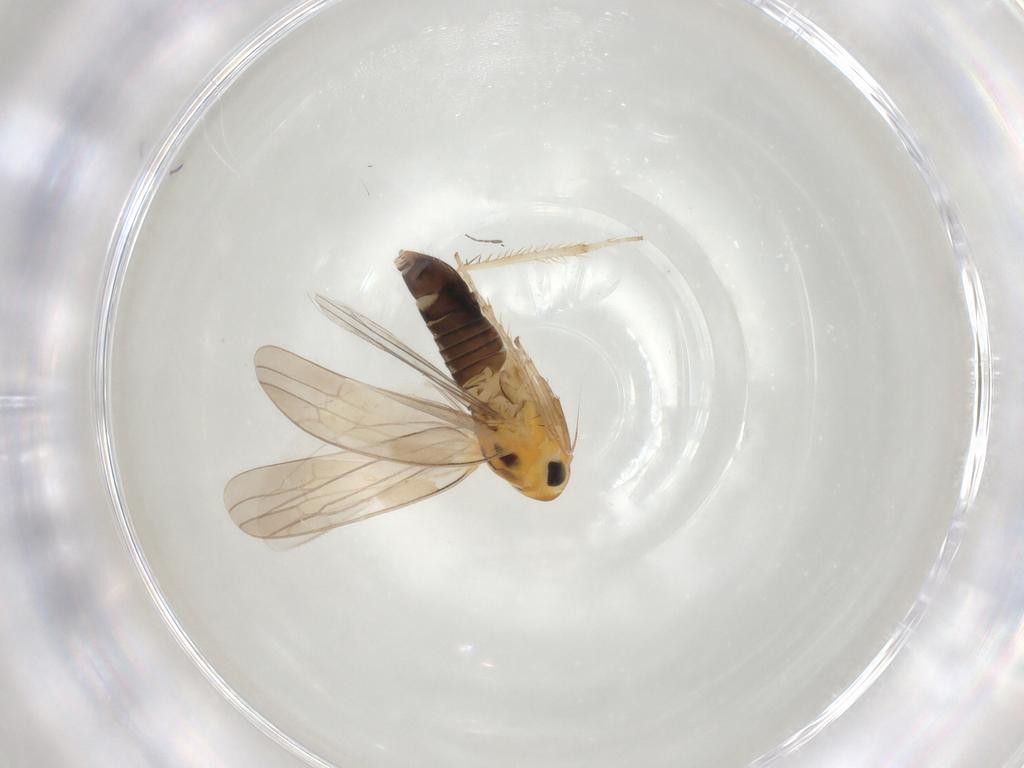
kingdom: Animalia
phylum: Arthropoda
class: Insecta
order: Hemiptera
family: Cicadellidae
